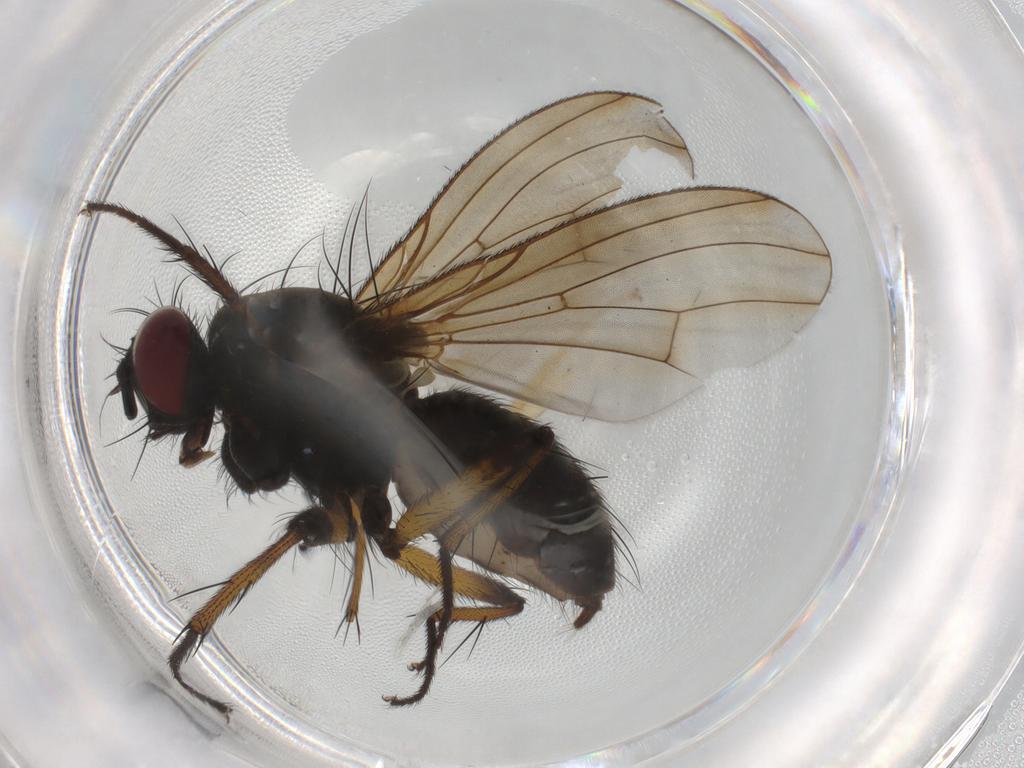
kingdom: Animalia
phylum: Arthropoda
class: Insecta
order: Diptera
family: Muscidae
